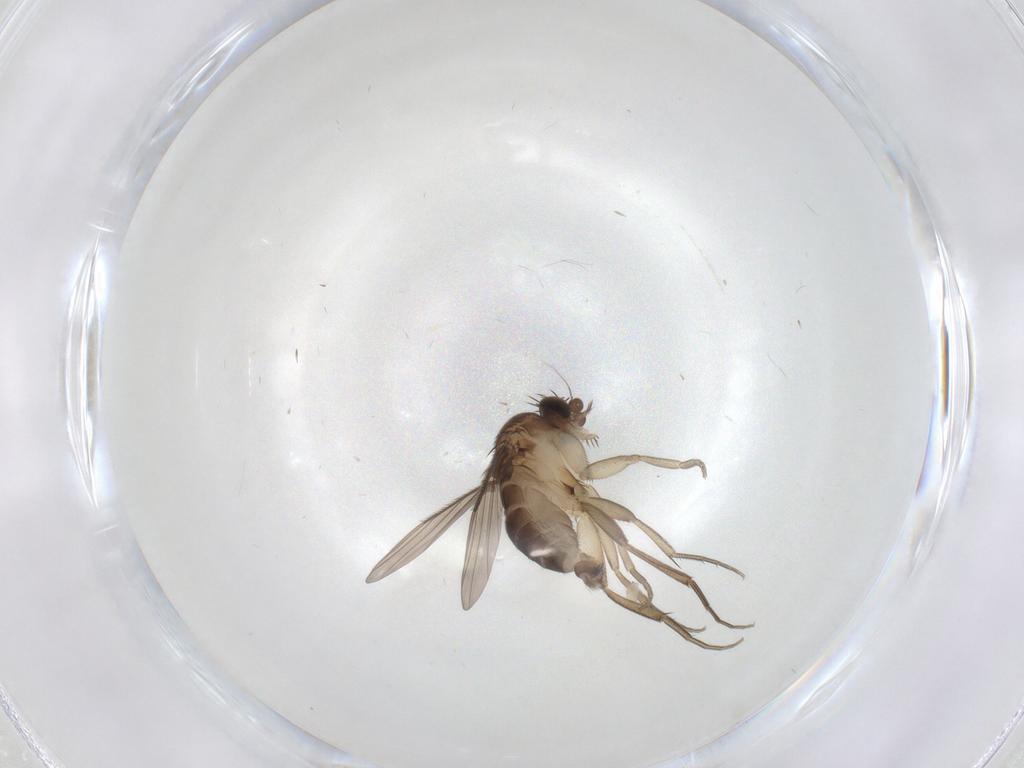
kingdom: Animalia
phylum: Arthropoda
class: Insecta
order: Diptera
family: Phoridae
